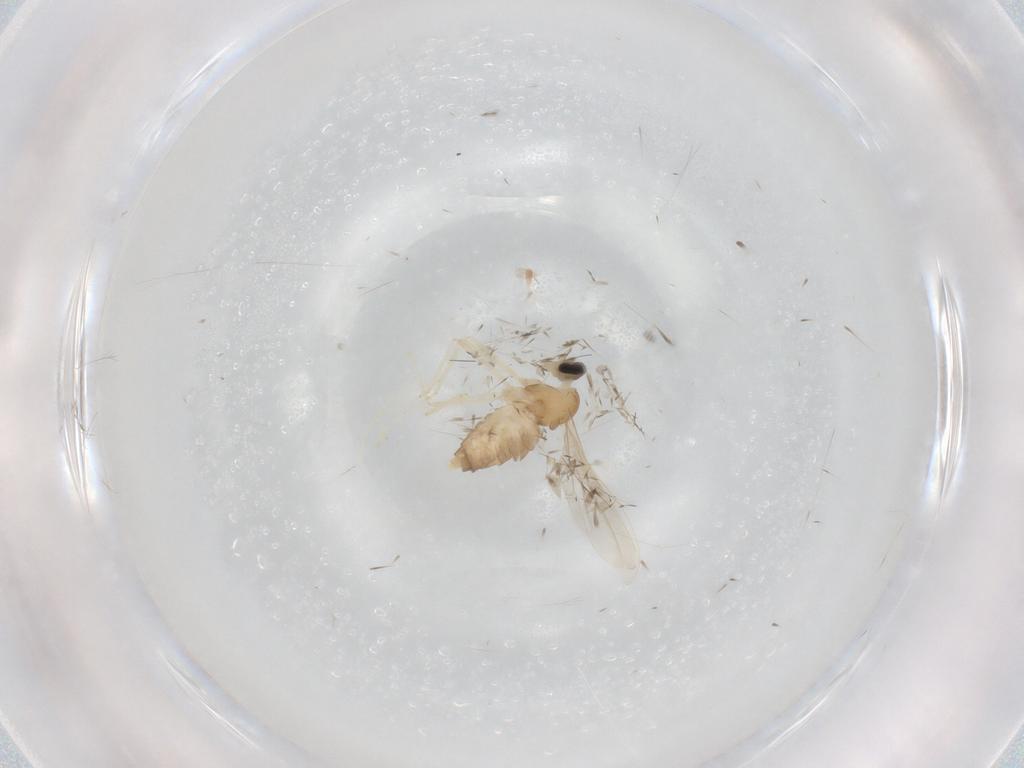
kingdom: Animalia
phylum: Arthropoda
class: Insecta
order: Diptera
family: Cecidomyiidae
